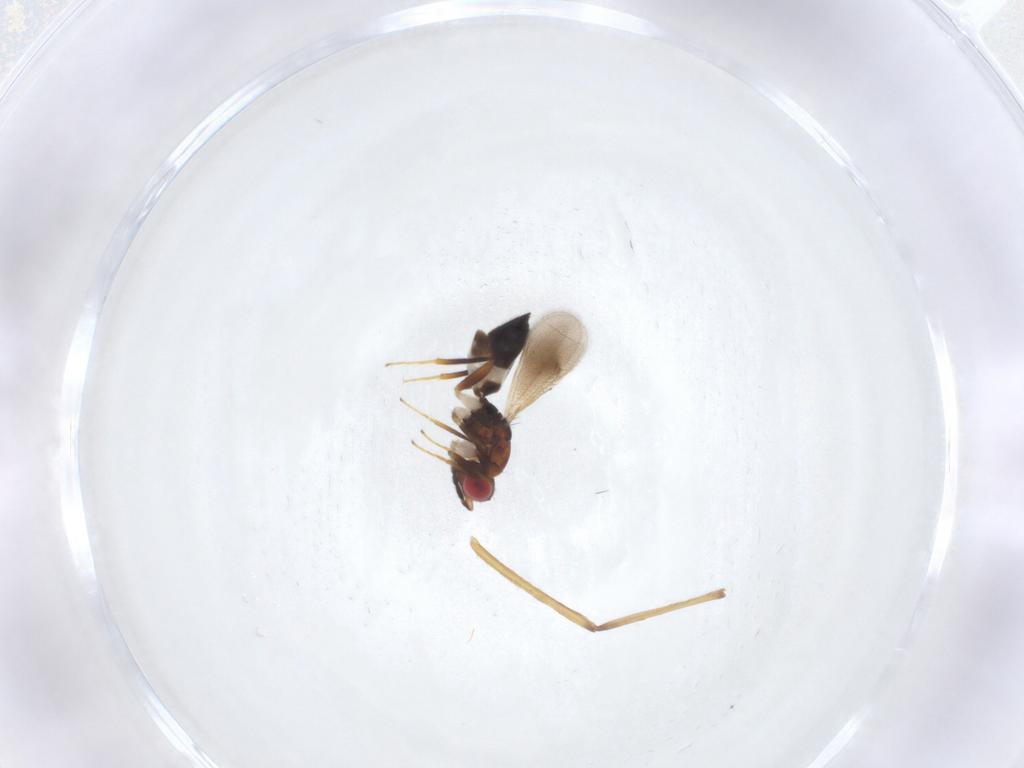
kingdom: Animalia
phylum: Arthropoda
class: Insecta
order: Hymenoptera
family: Eulophidae
